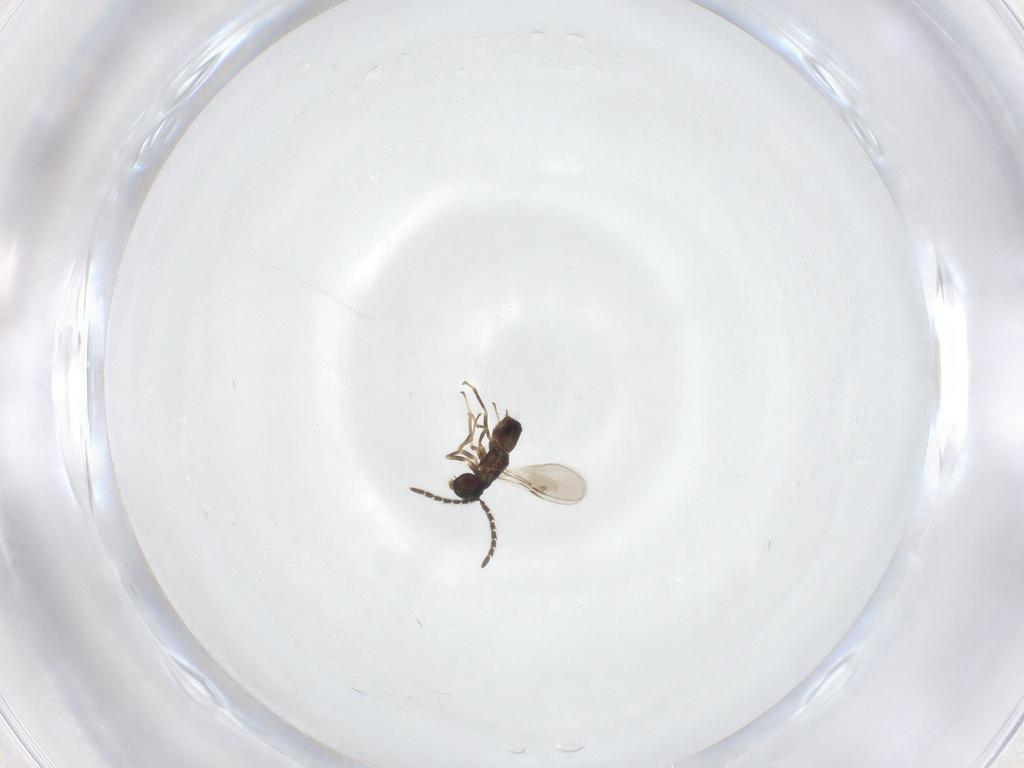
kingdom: Animalia
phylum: Arthropoda
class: Insecta
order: Hymenoptera
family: Encyrtidae
